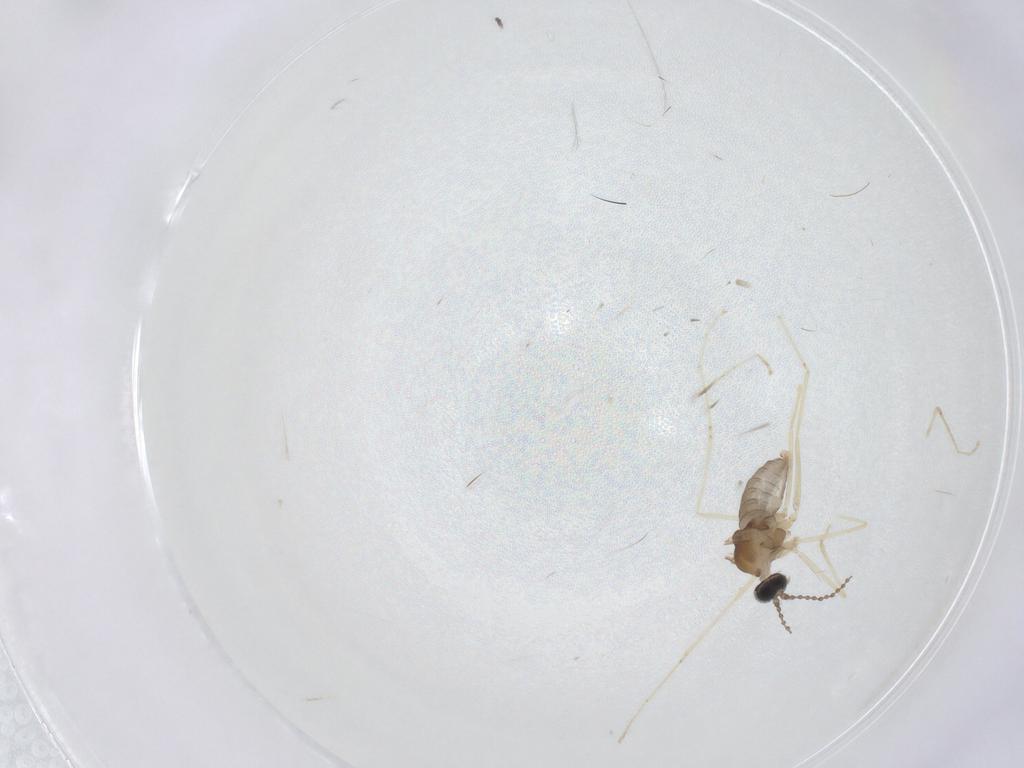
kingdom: Animalia
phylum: Arthropoda
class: Insecta
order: Diptera
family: Cecidomyiidae
